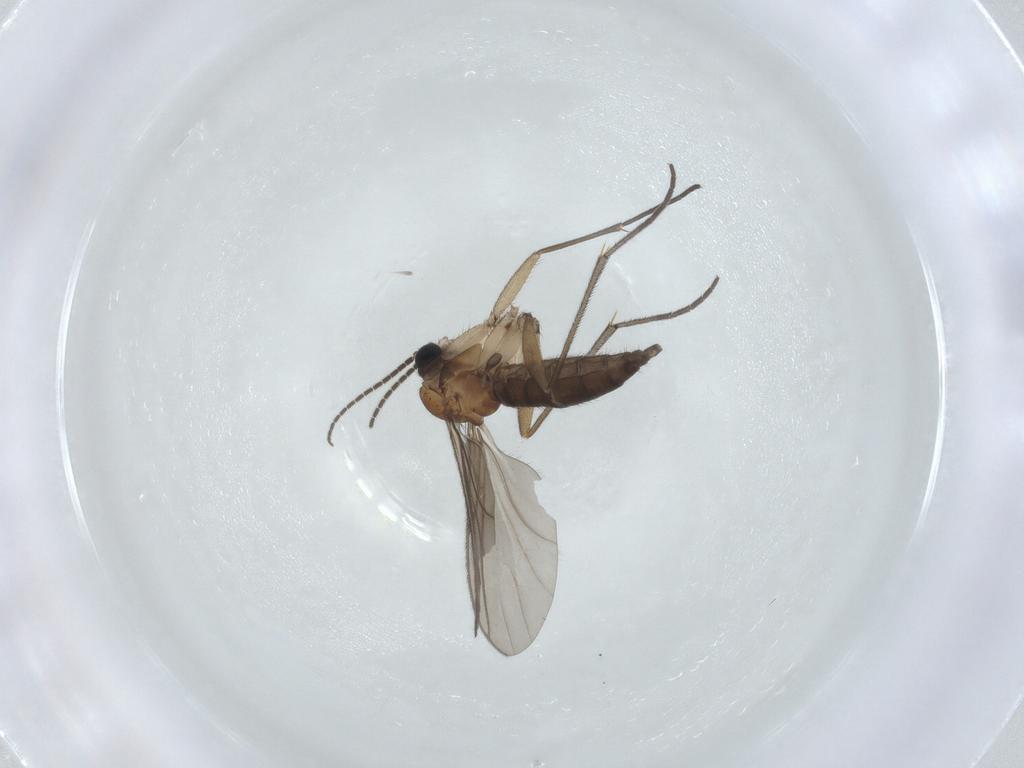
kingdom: Animalia
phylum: Arthropoda
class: Insecta
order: Diptera
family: Sciaridae
